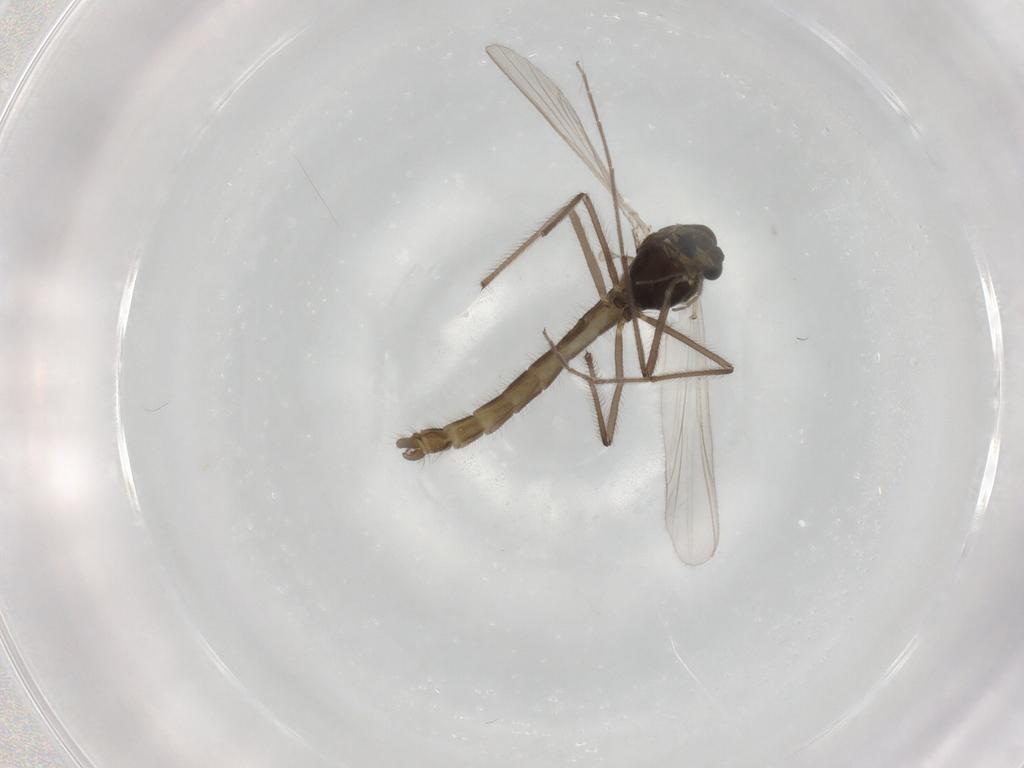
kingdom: Animalia
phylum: Arthropoda
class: Insecta
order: Diptera
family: Chironomidae
